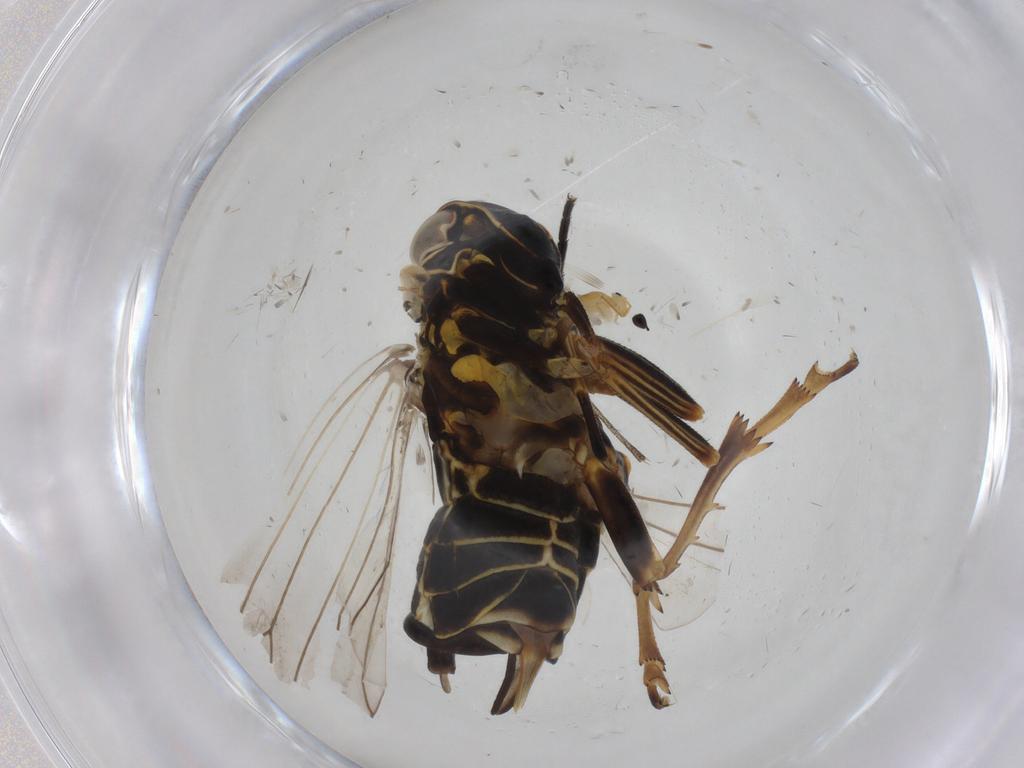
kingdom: Animalia
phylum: Arthropoda
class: Insecta
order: Hemiptera
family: Cixiidae
